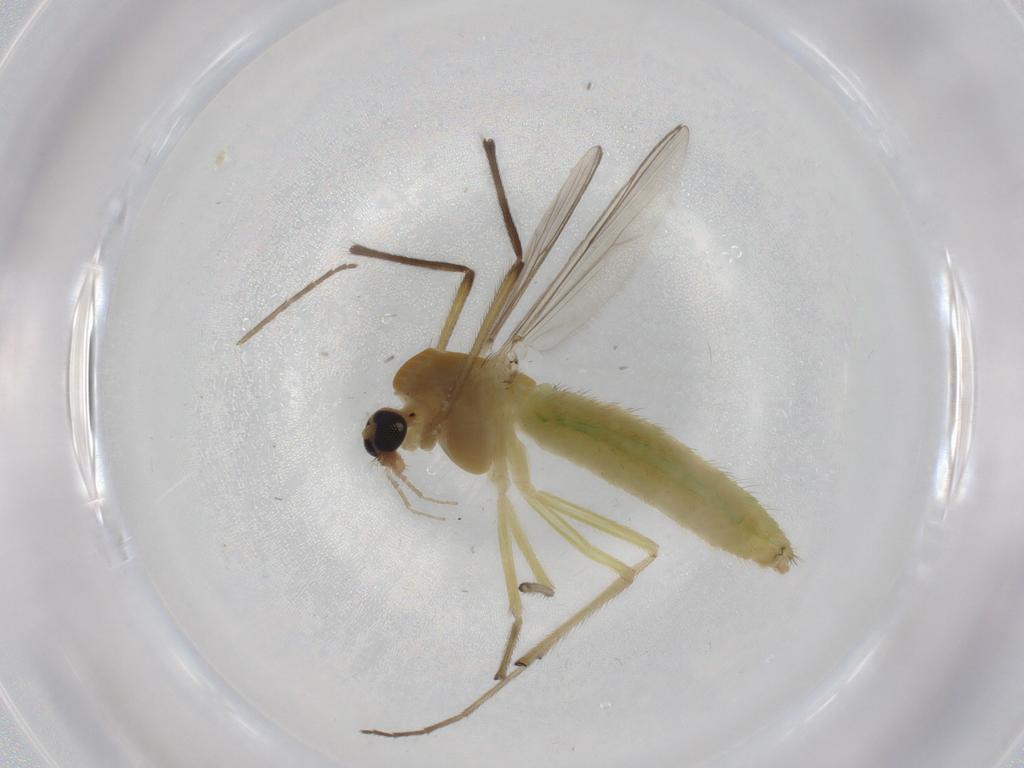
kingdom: Animalia
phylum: Arthropoda
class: Insecta
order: Diptera
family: Chironomidae
